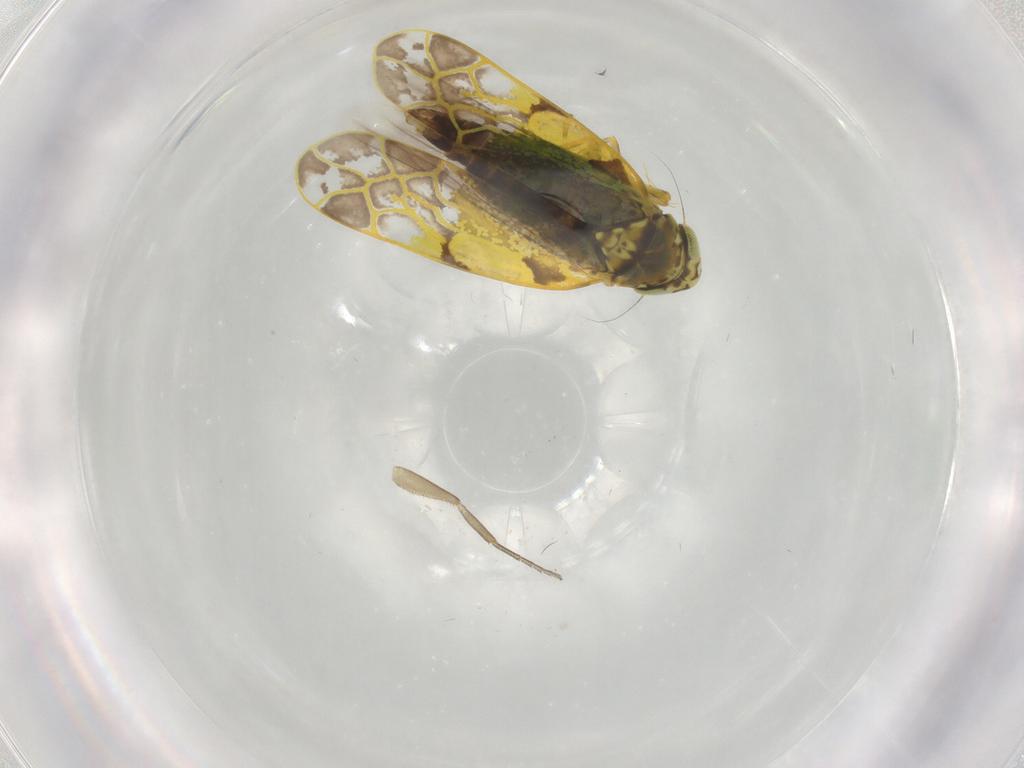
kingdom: Animalia
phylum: Arthropoda
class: Insecta
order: Hemiptera
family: Cicadellidae
